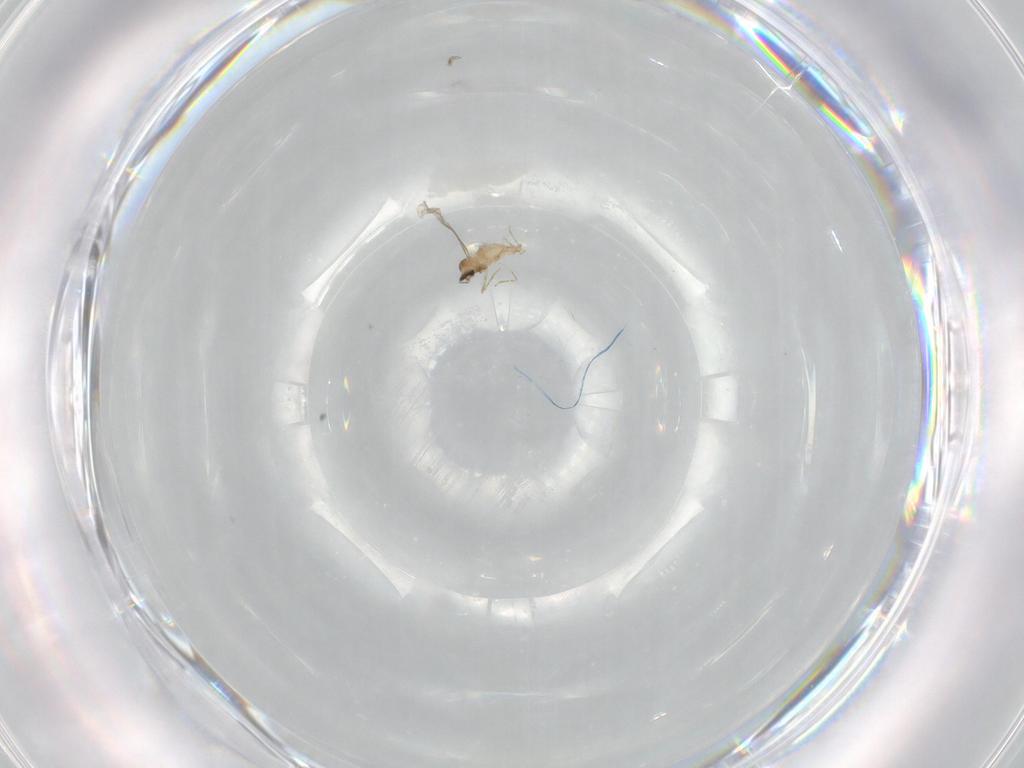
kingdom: Animalia
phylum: Arthropoda
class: Insecta
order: Diptera
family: Cecidomyiidae
